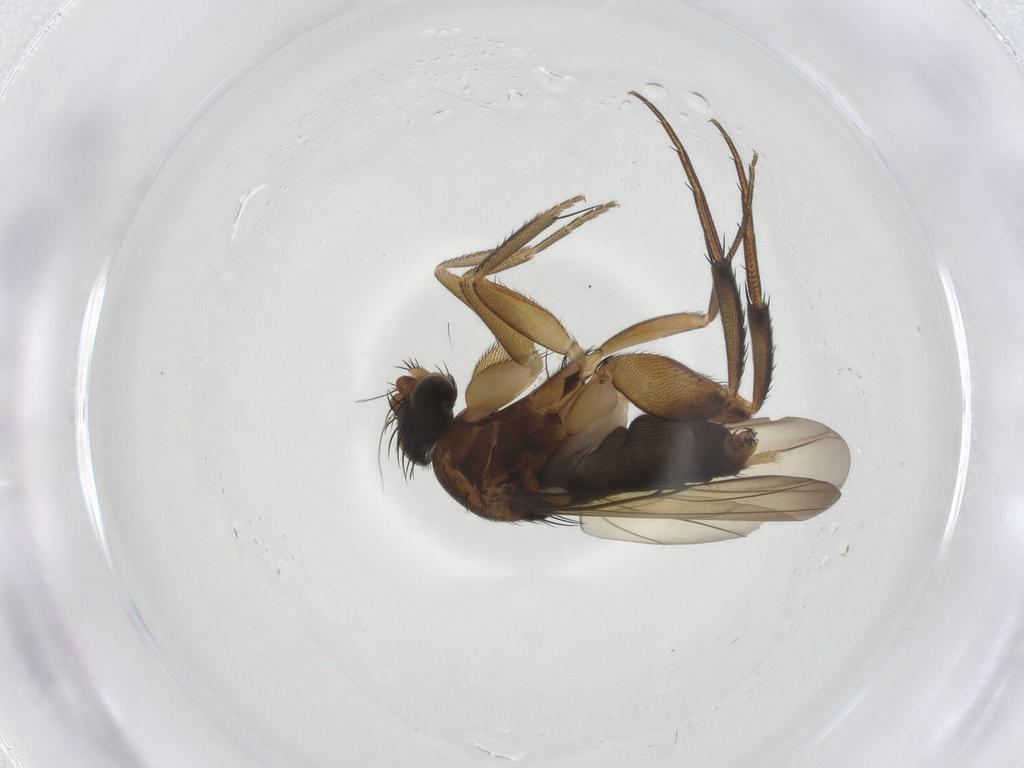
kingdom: Animalia
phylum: Arthropoda
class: Insecta
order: Diptera
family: Phoridae
